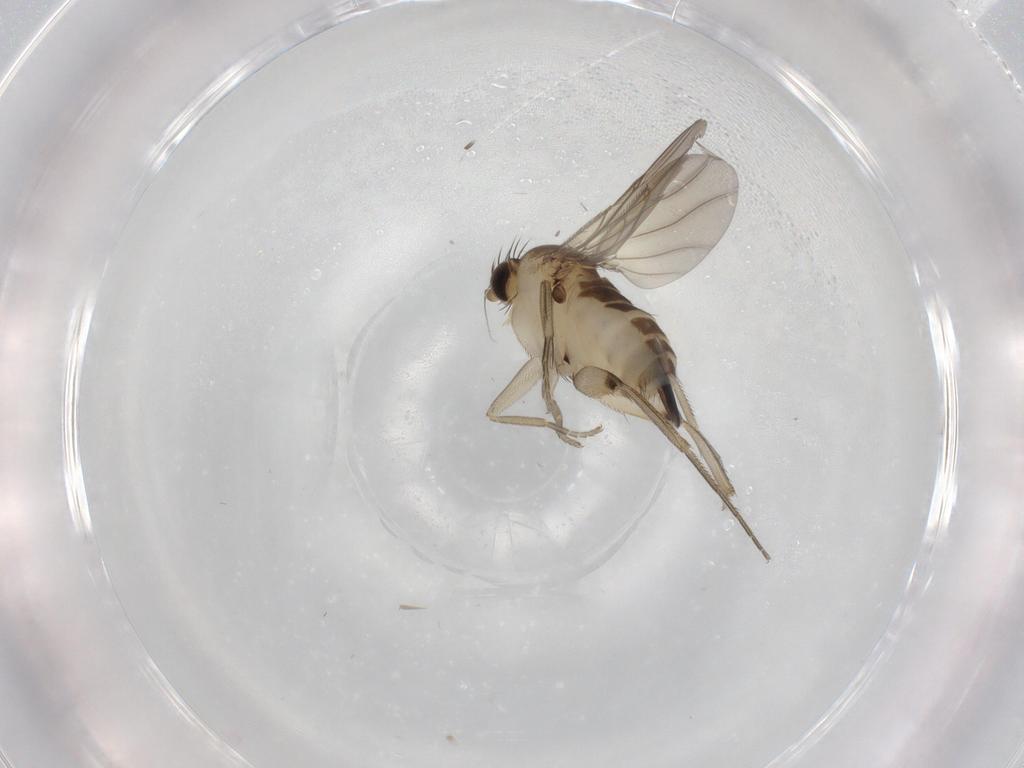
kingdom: Animalia
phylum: Arthropoda
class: Insecta
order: Diptera
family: Phoridae
